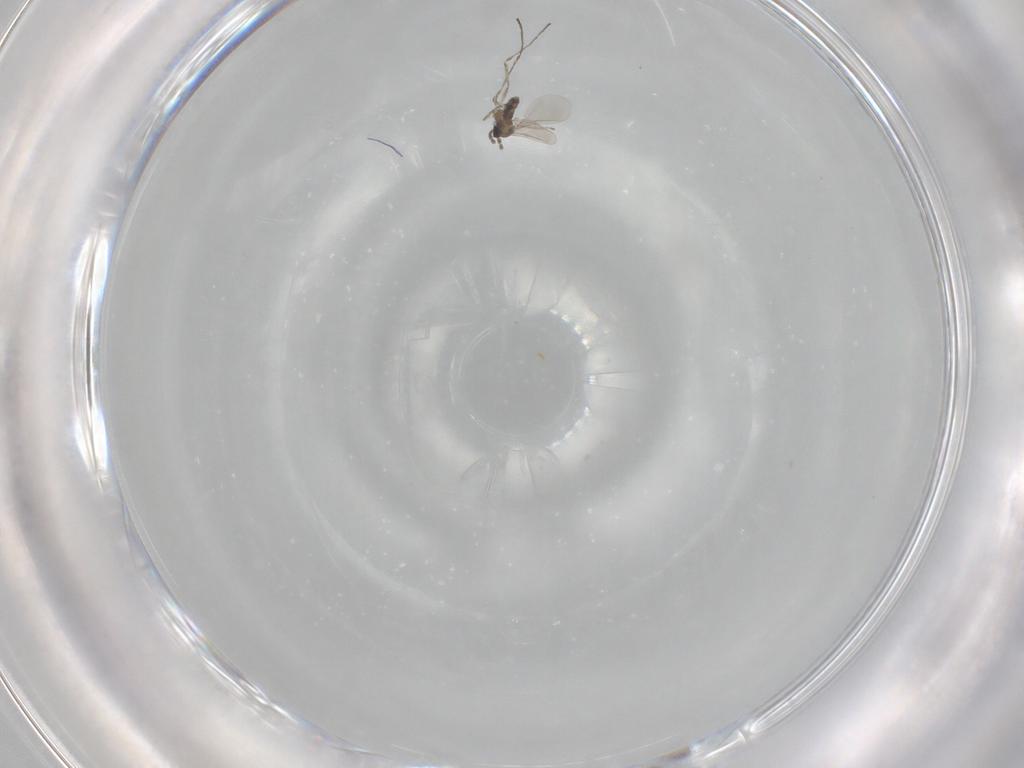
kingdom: Animalia
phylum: Arthropoda
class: Insecta
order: Diptera
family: Cecidomyiidae
